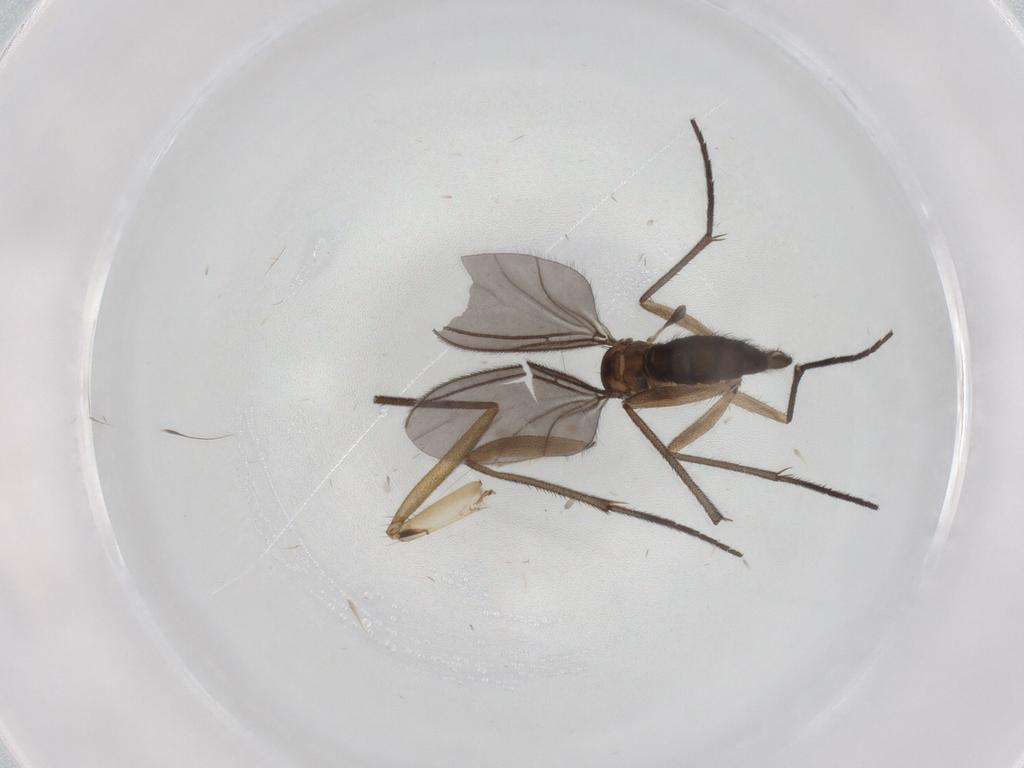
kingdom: Animalia
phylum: Arthropoda
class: Insecta
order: Diptera
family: Ditomyiidae
